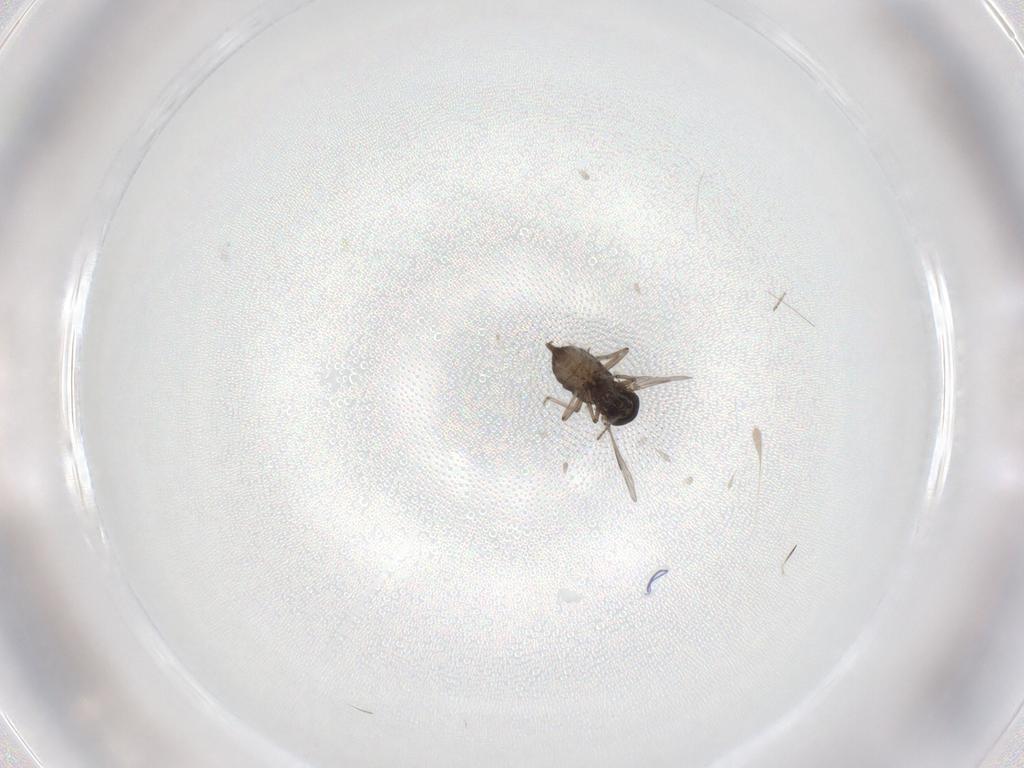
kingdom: Animalia
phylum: Arthropoda
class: Insecta
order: Diptera
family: Ceratopogonidae
